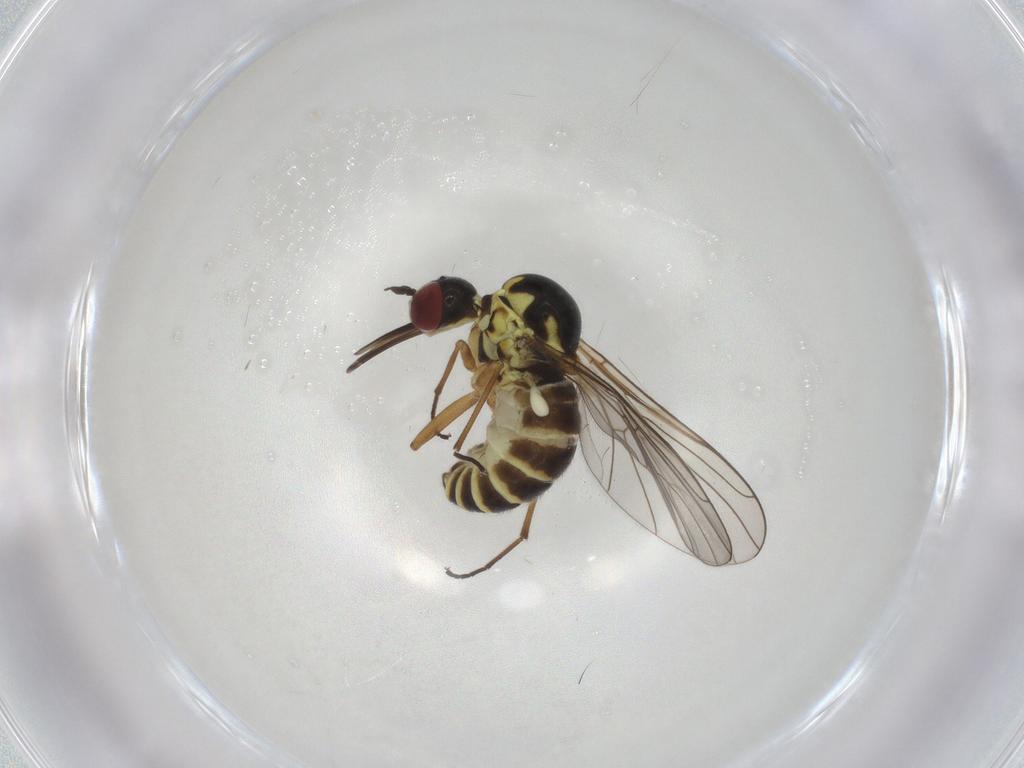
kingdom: Animalia
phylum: Arthropoda
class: Insecta
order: Diptera
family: Bombyliidae
